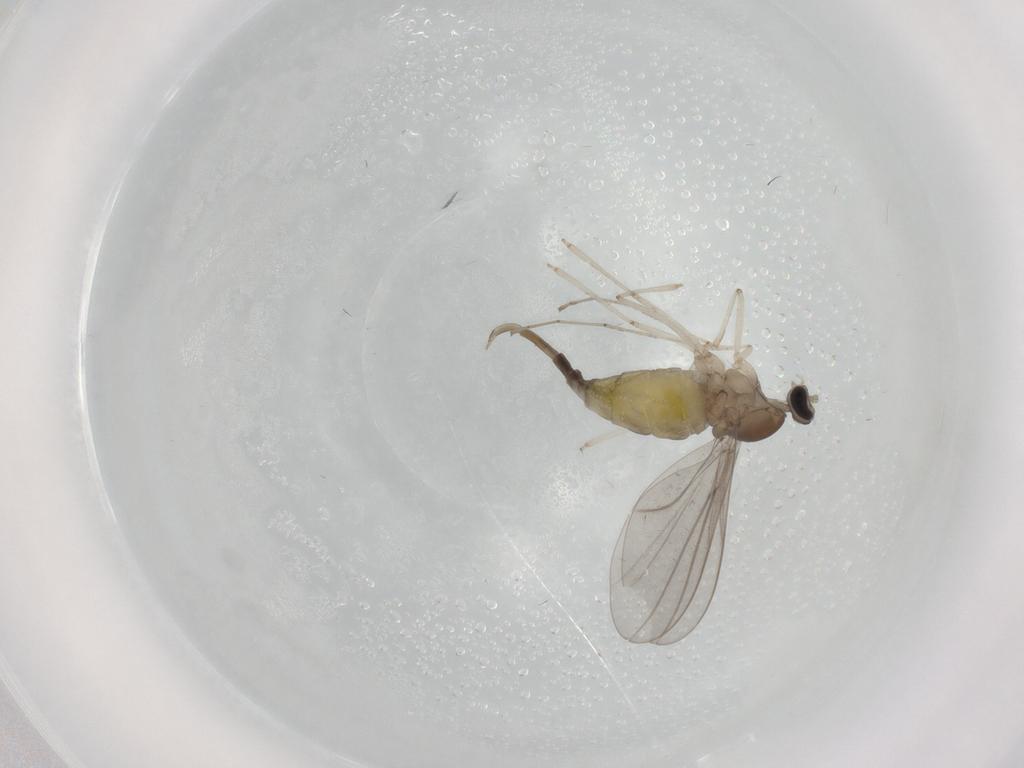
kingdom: Animalia
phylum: Arthropoda
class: Insecta
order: Diptera
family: Cecidomyiidae
